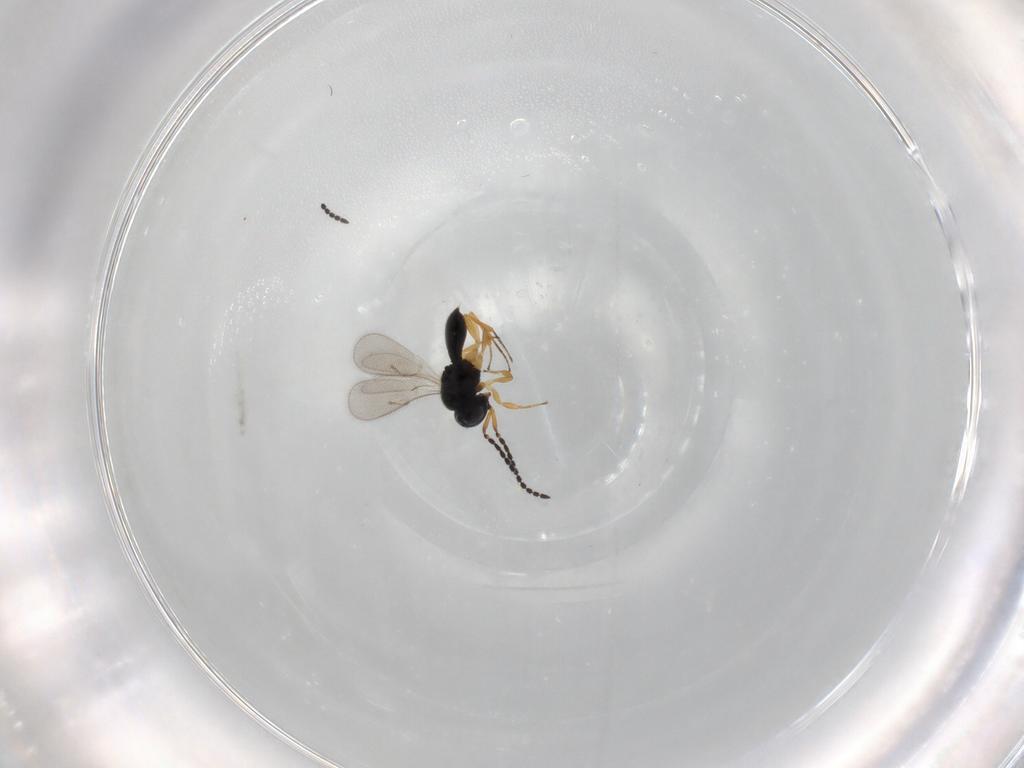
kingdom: Animalia
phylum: Arthropoda
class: Insecta
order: Hymenoptera
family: Scelionidae
